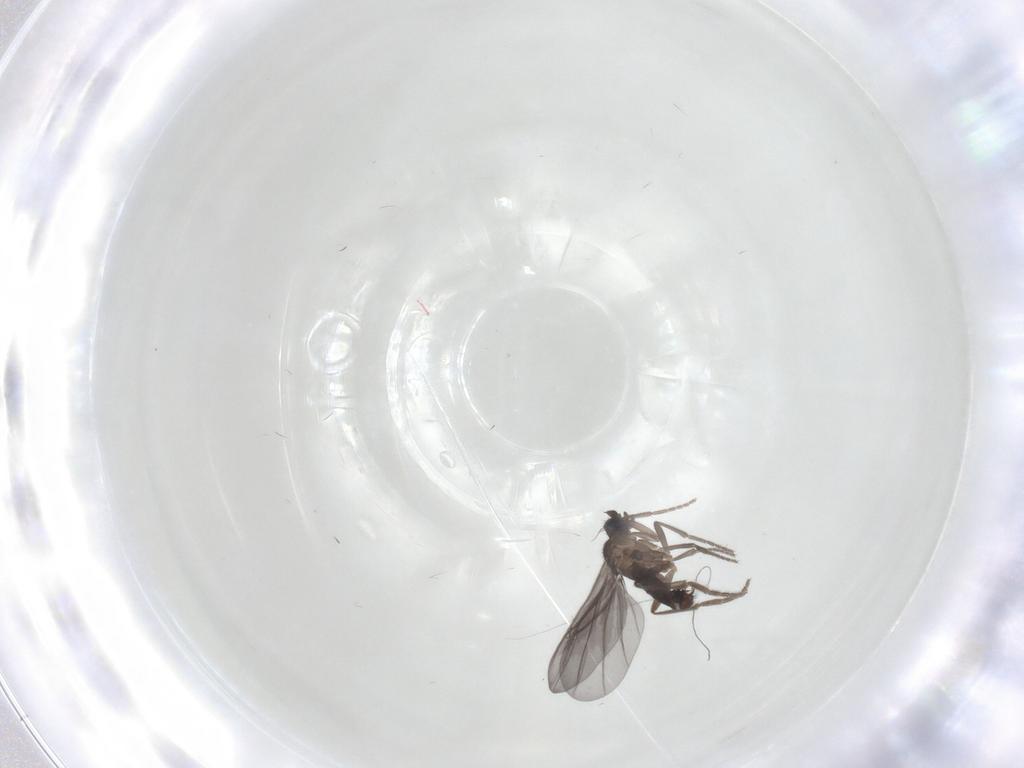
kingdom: Animalia
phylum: Arthropoda
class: Insecta
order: Diptera
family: Phoridae
